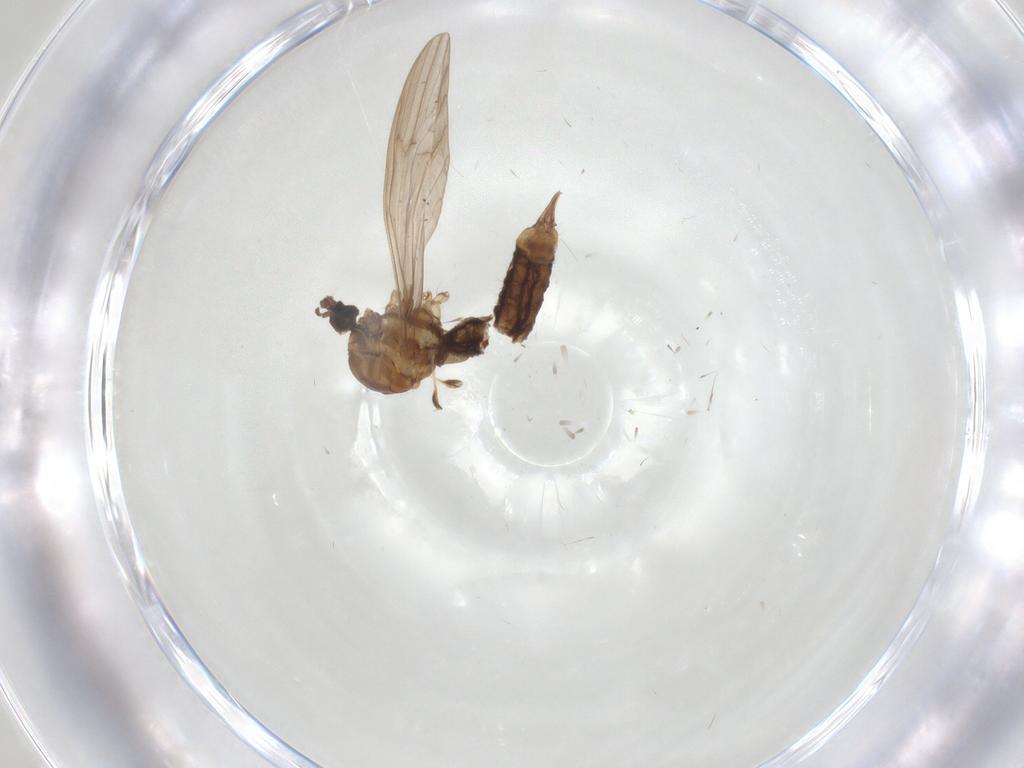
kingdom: Animalia
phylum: Arthropoda
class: Insecta
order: Diptera
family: Limoniidae
